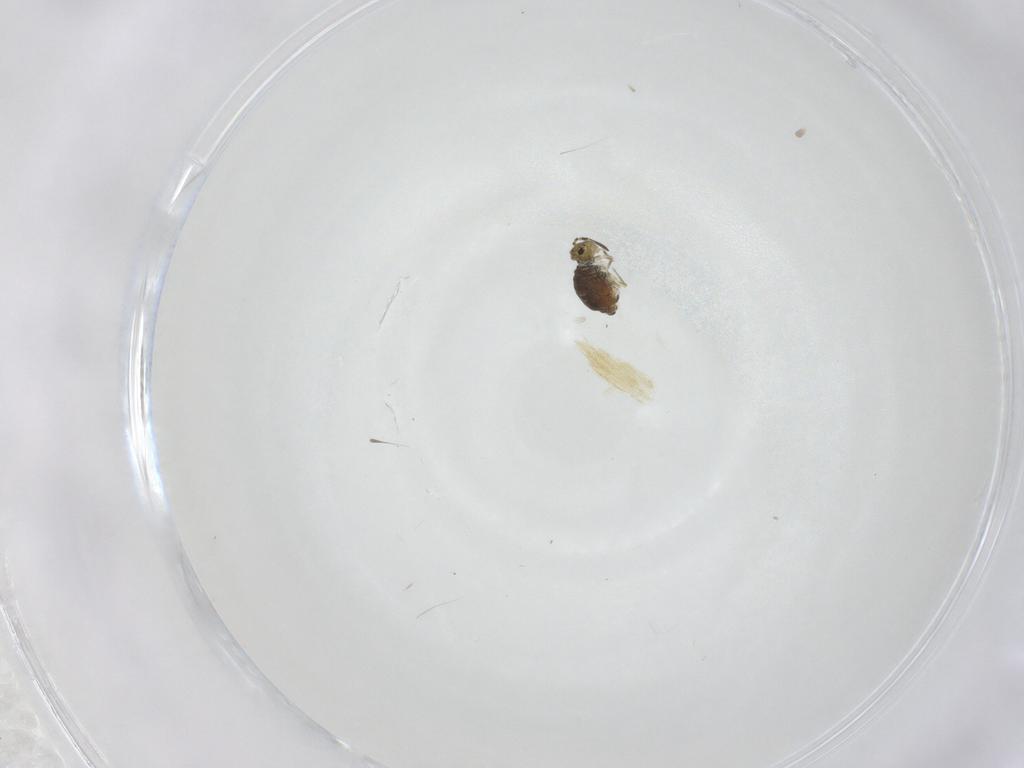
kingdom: Animalia
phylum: Arthropoda
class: Collembola
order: Symphypleona
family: Katiannidae
